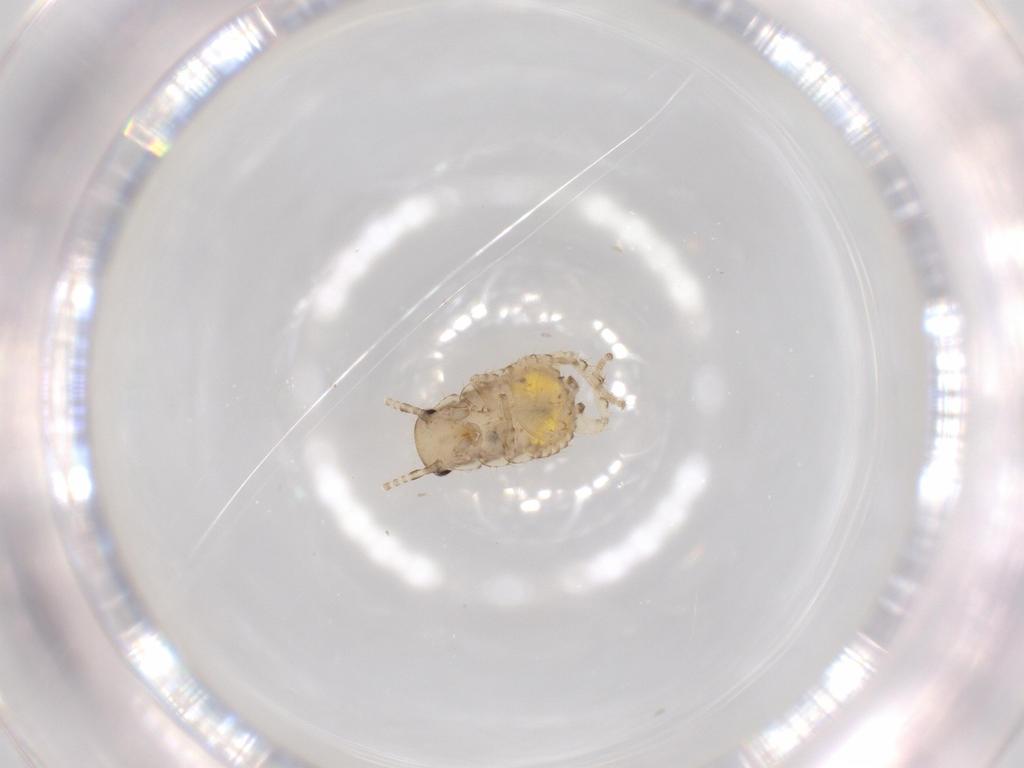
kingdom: Animalia
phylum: Arthropoda
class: Insecta
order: Blattodea
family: Ectobiidae
